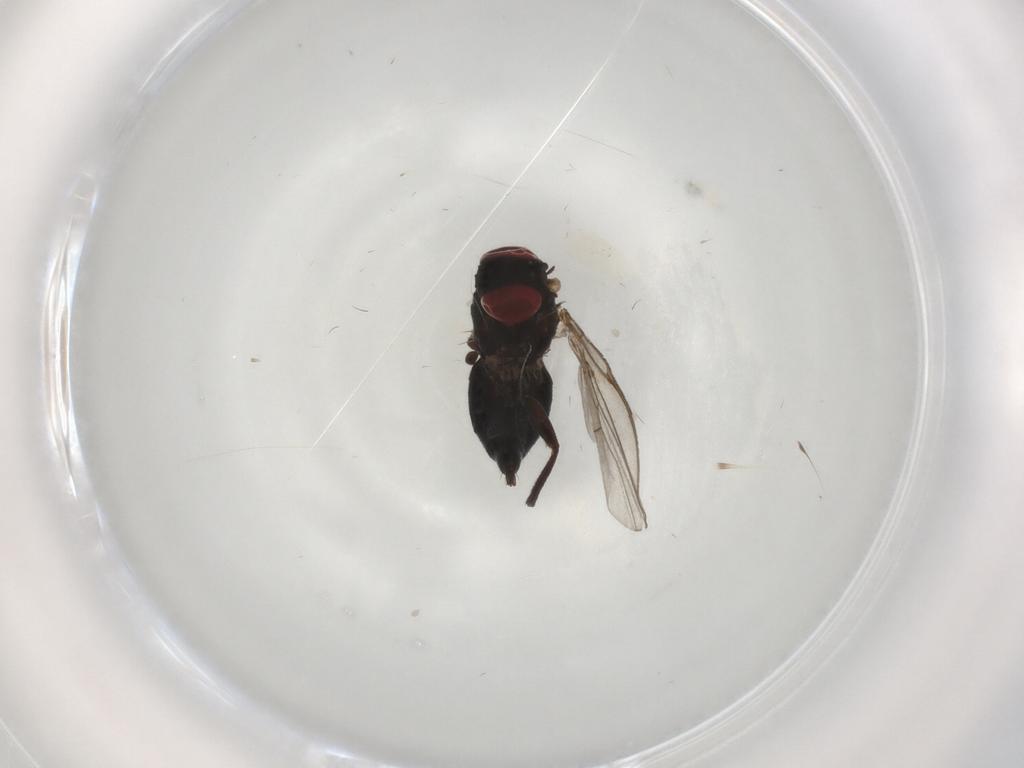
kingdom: Animalia
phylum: Arthropoda
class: Insecta
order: Diptera
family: Agromyzidae
